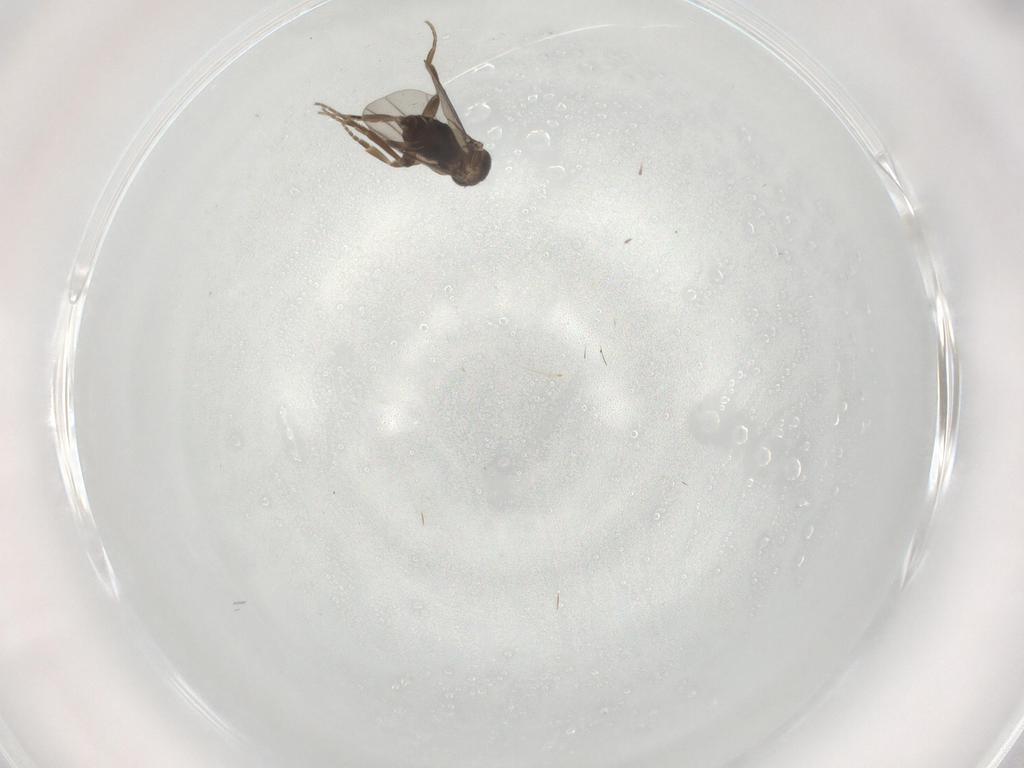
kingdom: Animalia
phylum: Arthropoda
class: Insecta
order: Diptera
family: Phoridae
